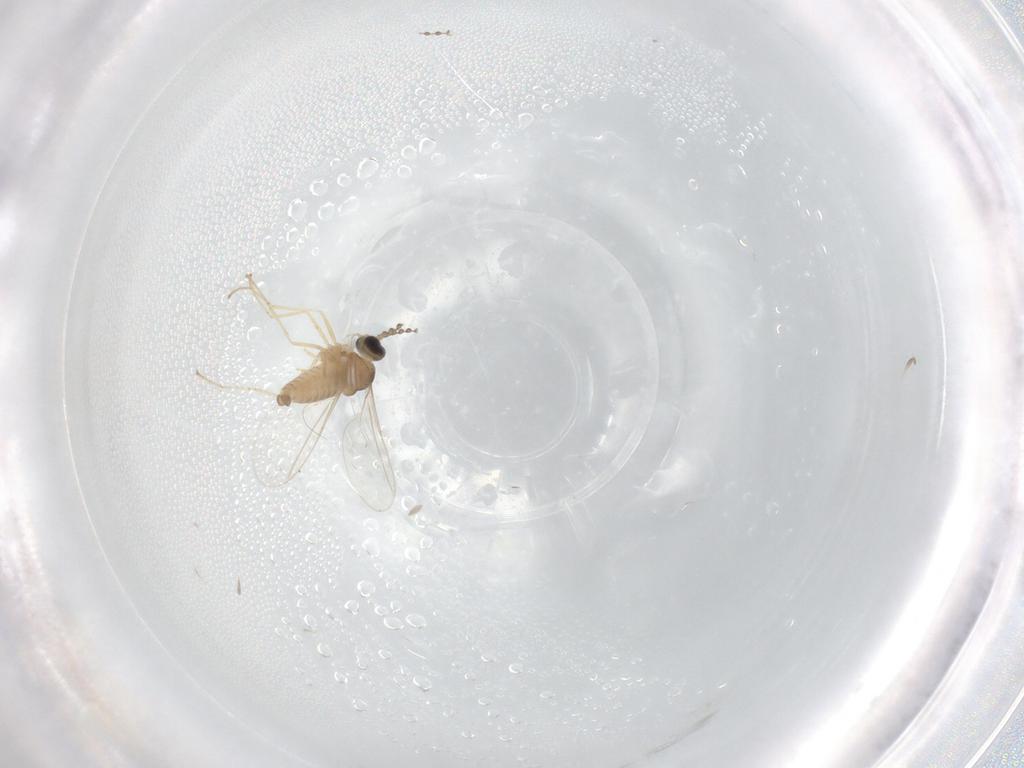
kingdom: Animalia
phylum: Arthropoda
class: Insecta
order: Diptera
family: Cecidomyiidae
